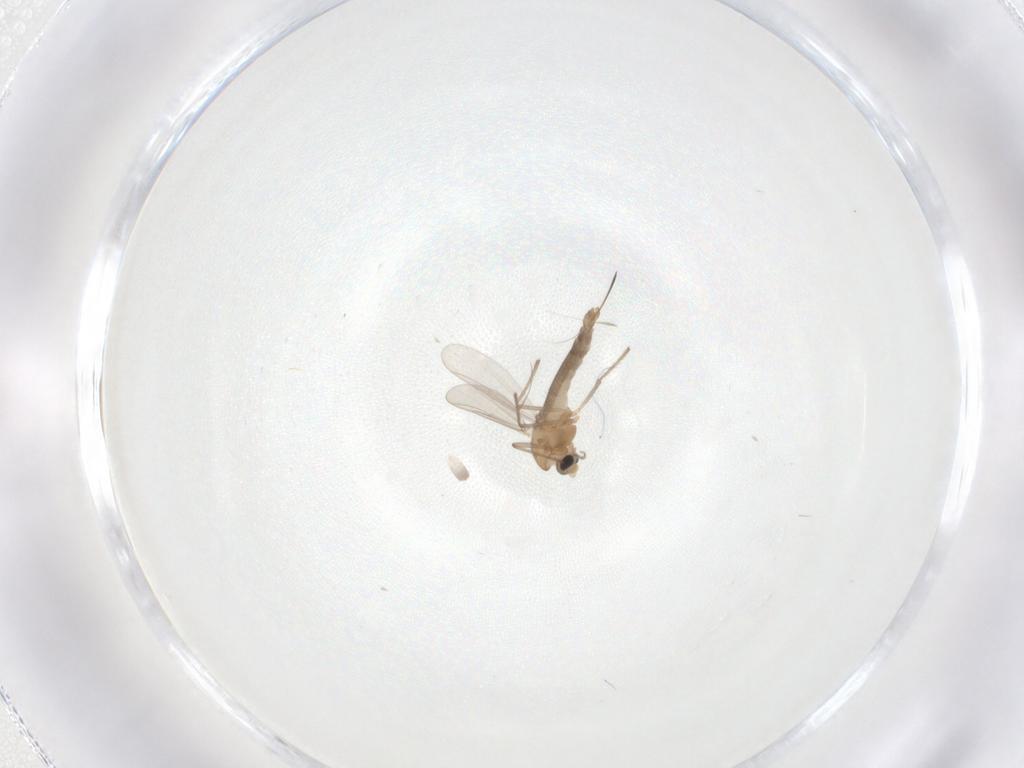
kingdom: Animalia
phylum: Arthropoda
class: Insecta
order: Diptera
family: Chironomidae
